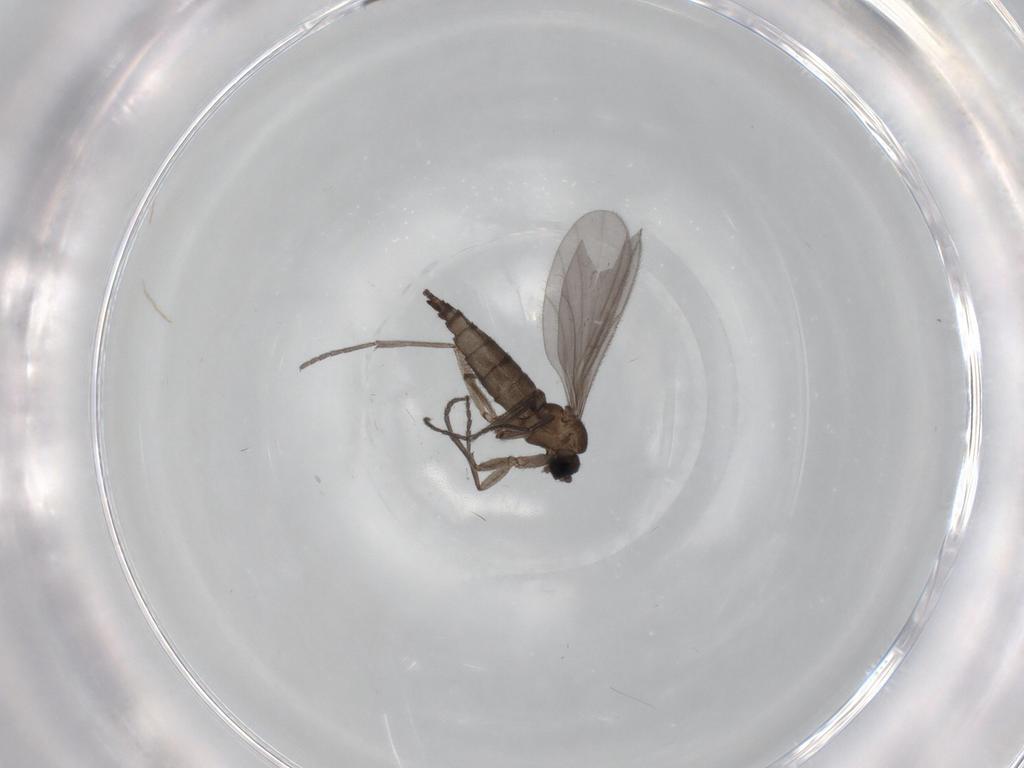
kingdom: Animalia
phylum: Arthropoda
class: Insecta
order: Diptera
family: Sciaridae
